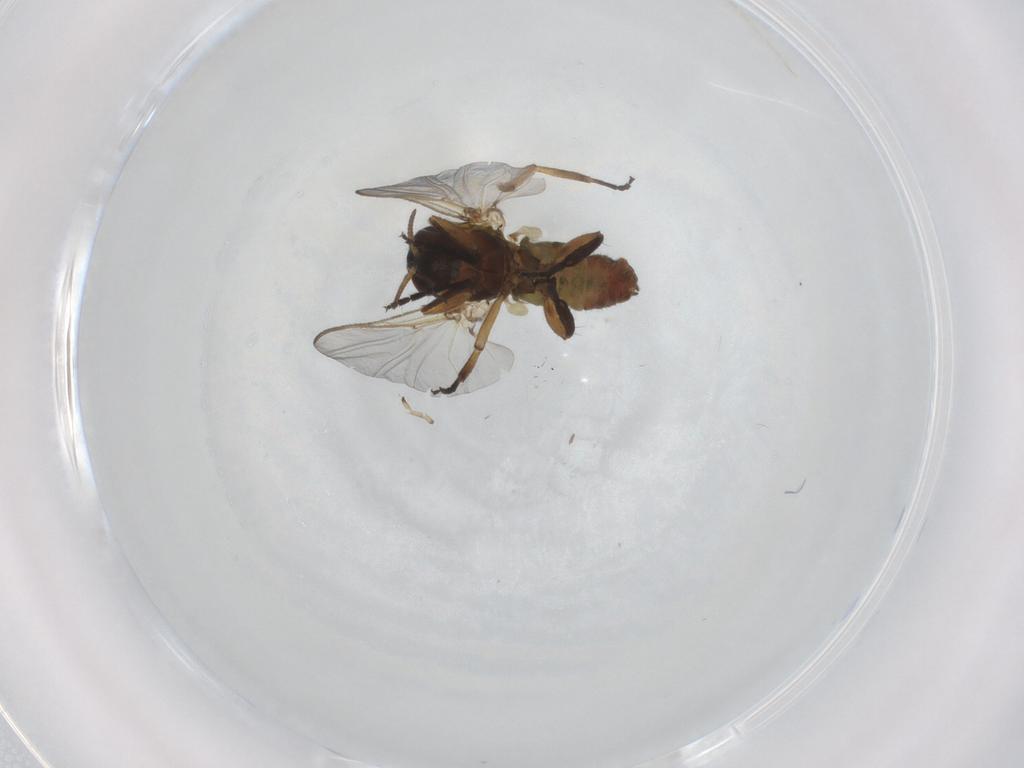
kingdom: Animalia
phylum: Arthropoda
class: Insecta
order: Diptera
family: Simuliidae
